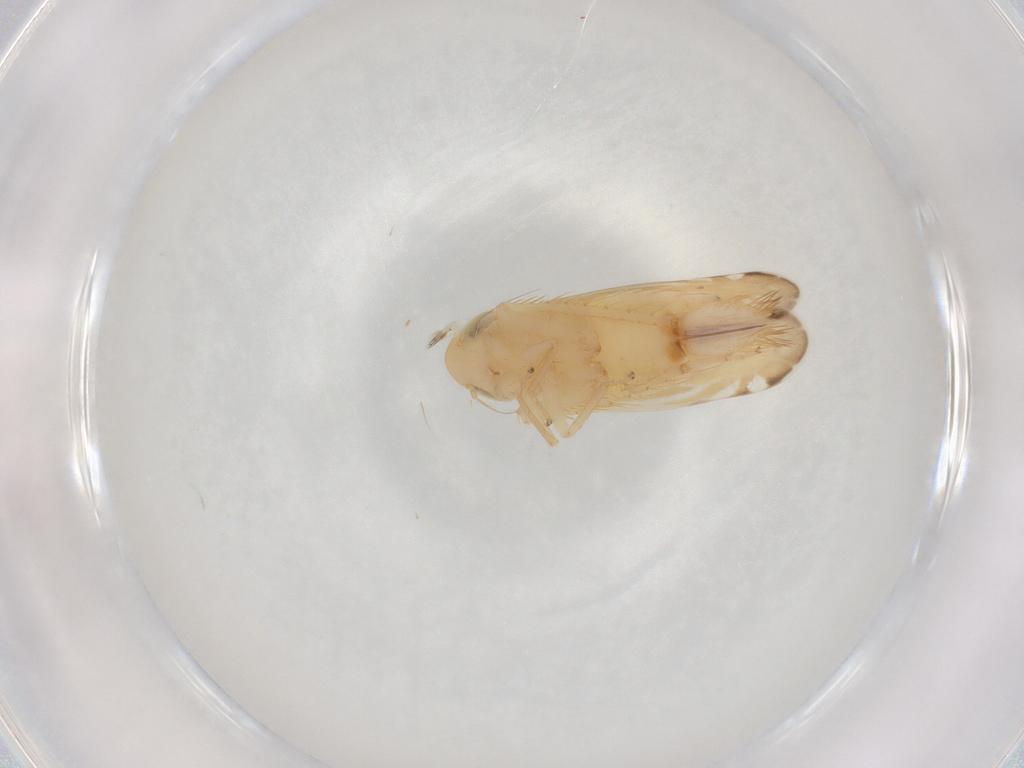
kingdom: Animalia
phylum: Arthropoda
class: Insecta
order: Hemiptera
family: Cicadellidae
